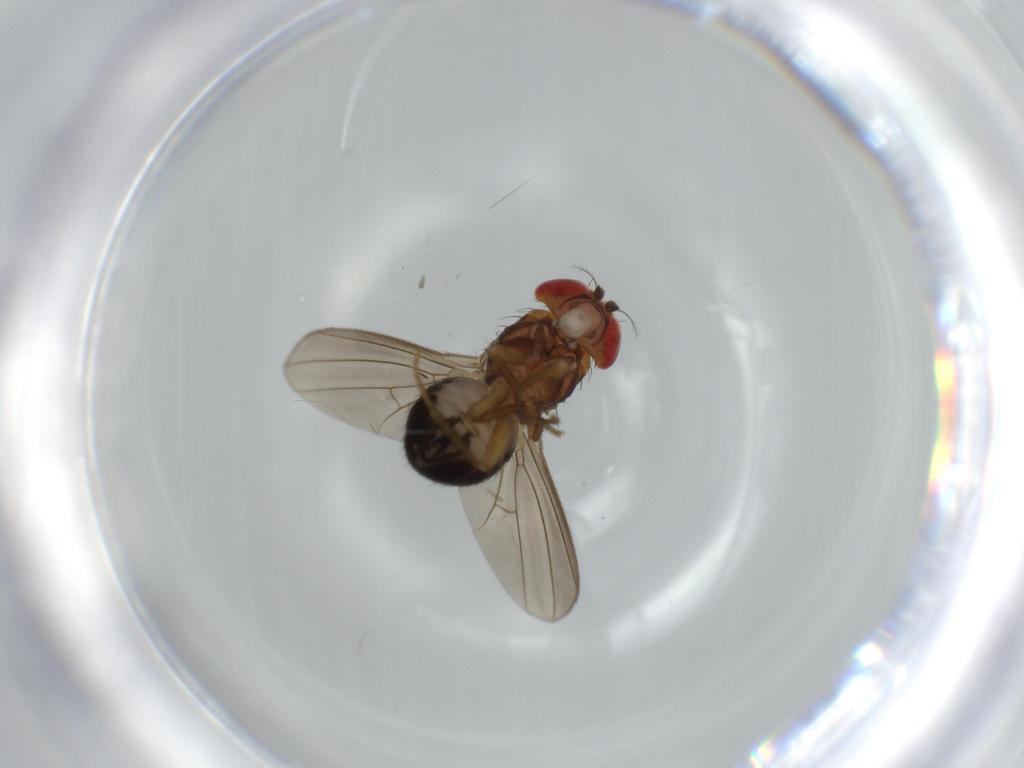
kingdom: Animalia
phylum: Arthropoda
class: Insecta
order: Diptera
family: Drosophilidae
